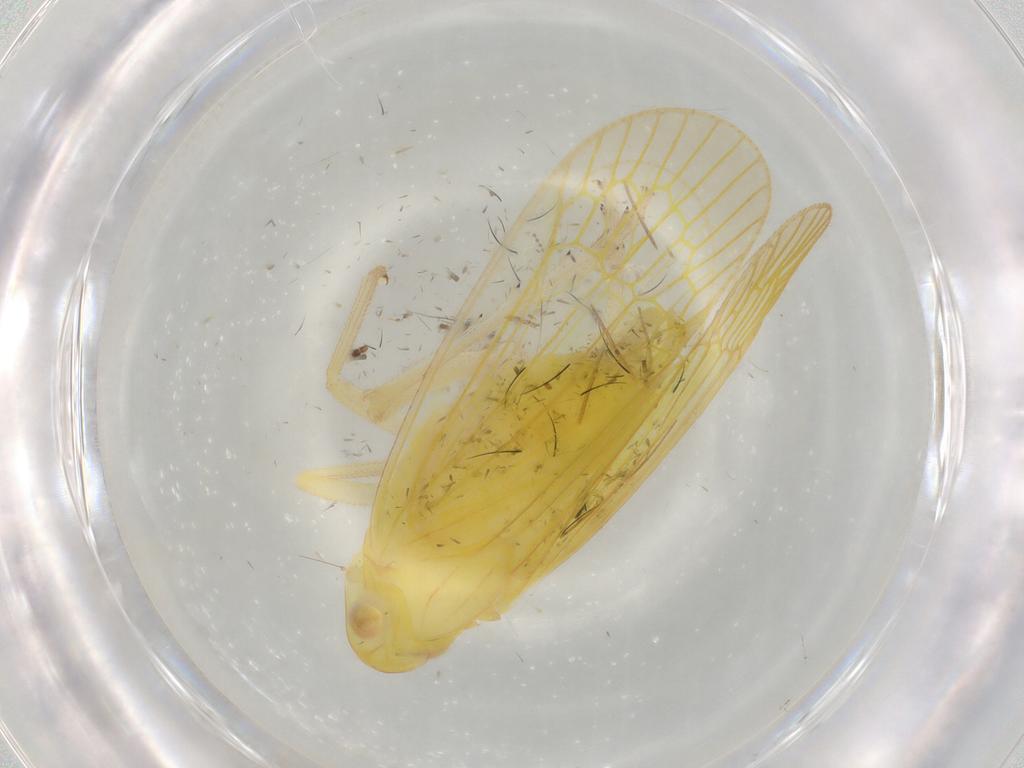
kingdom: Animalia
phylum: Arthropoda
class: Insecta
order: Hemiptera
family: Tropiduchidae
